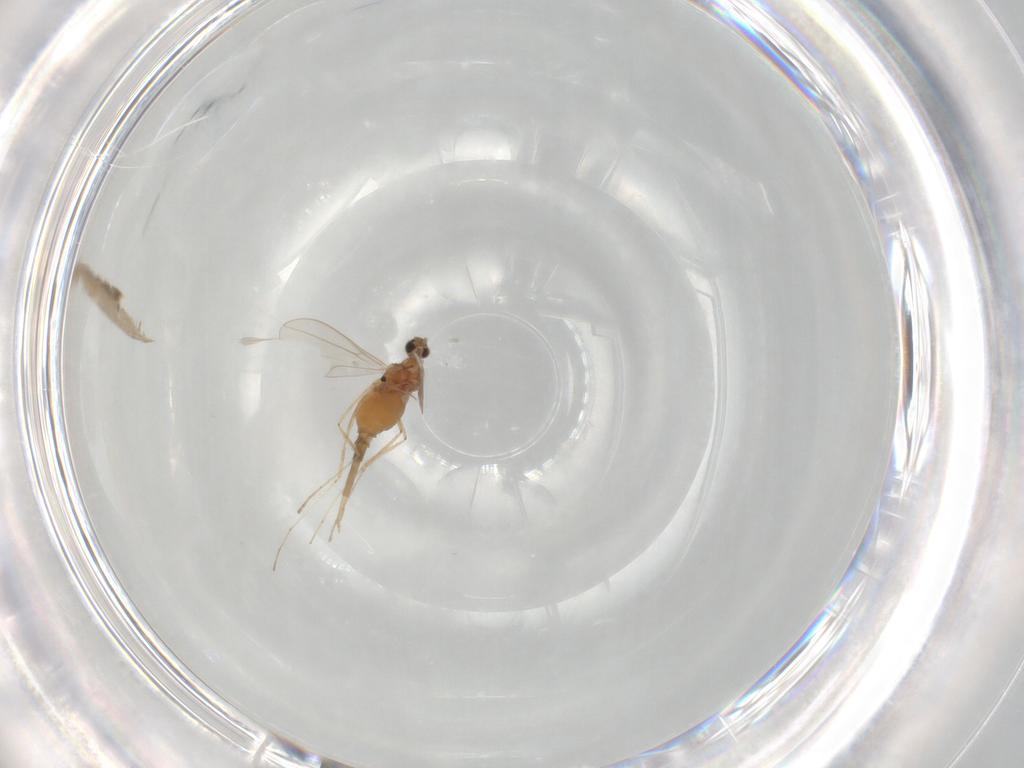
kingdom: Animalia
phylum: Arthropoda
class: Insecta
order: Diptera
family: Cecidomyiidae
